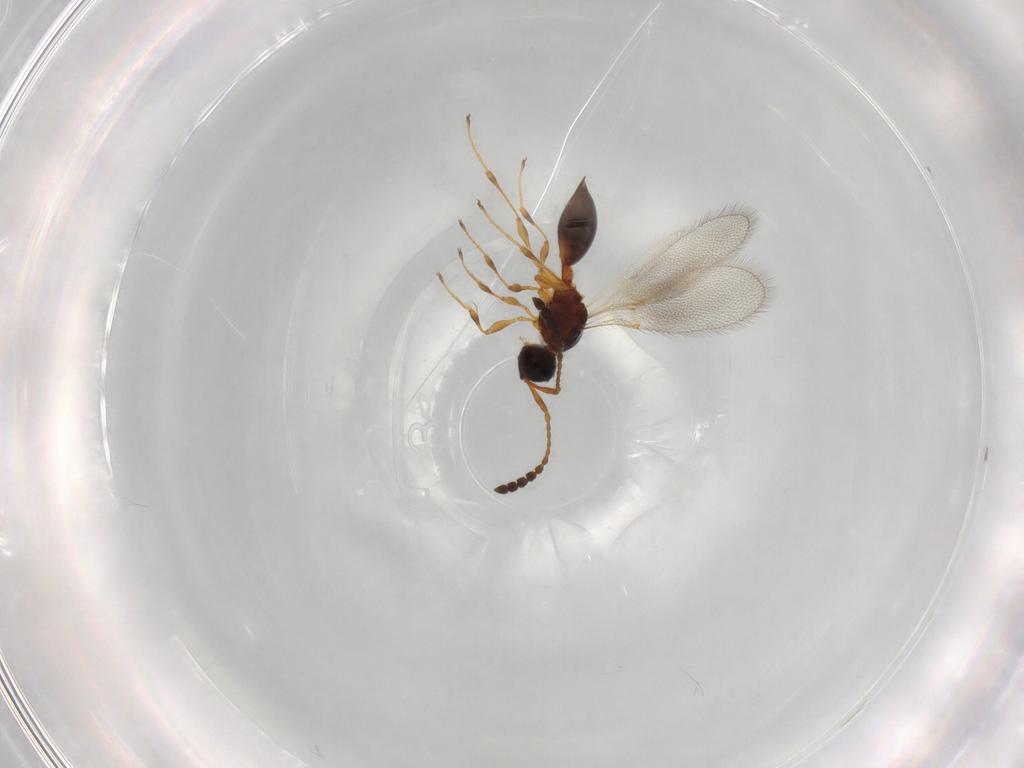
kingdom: Animalia
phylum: Arthropoda
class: Insecta
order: Hymenoptera
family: Diapriidae
